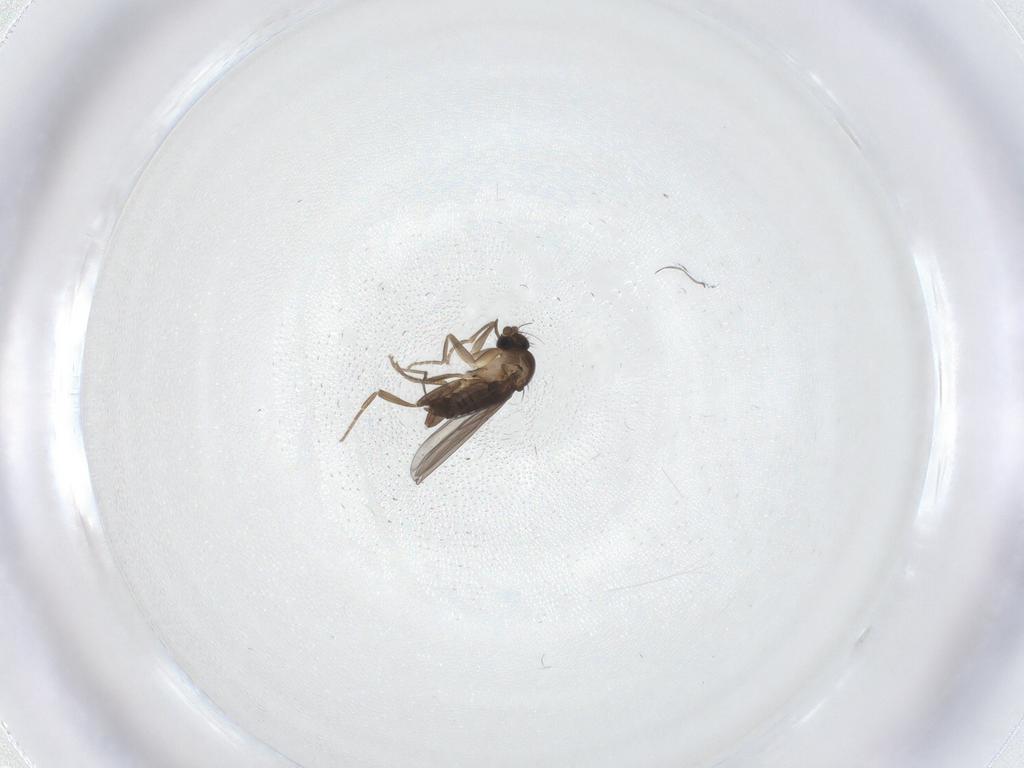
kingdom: Animalia
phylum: Arthropoda
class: Insecta
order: Diptera
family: Phoridae
